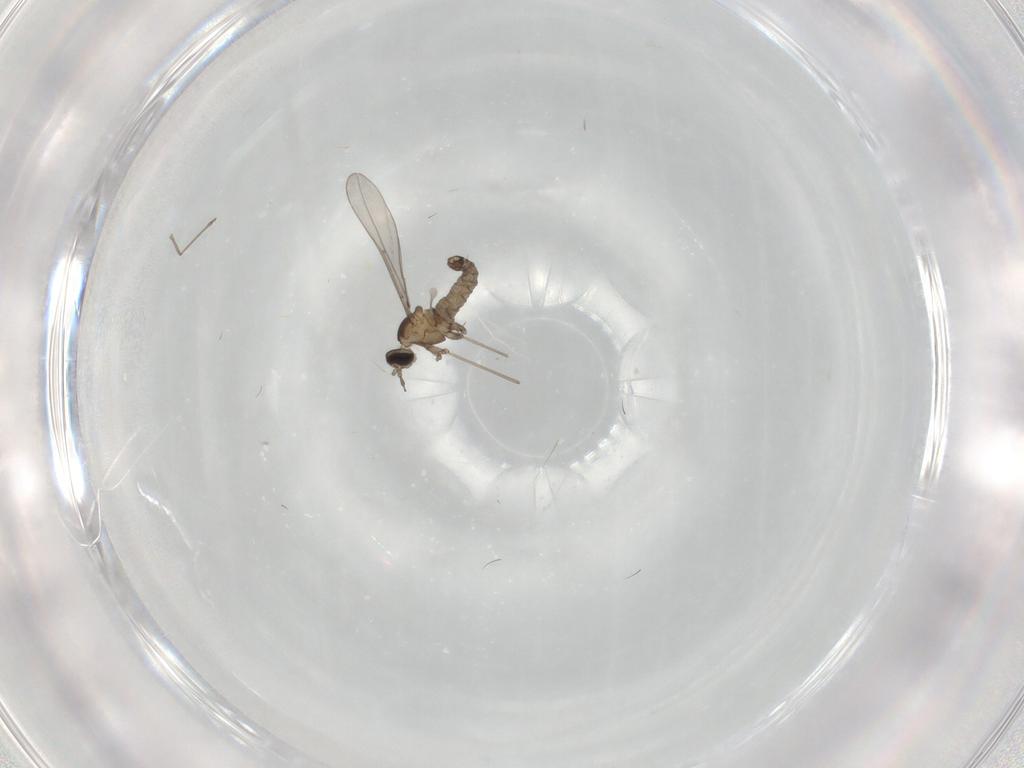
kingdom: Animalia
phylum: Arthropoda
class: Insecta
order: Diptera
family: Cecidomyiidae
